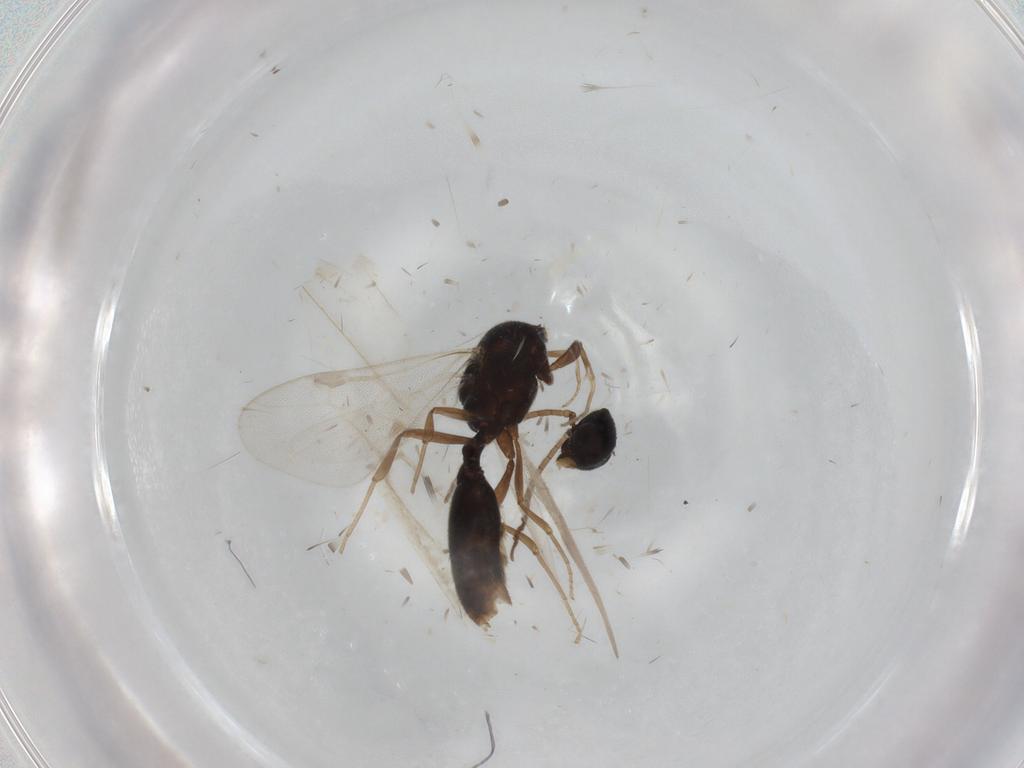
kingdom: Animalia
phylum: Arthropoda
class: Insecta
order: Hymenoptera
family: Formicidae
